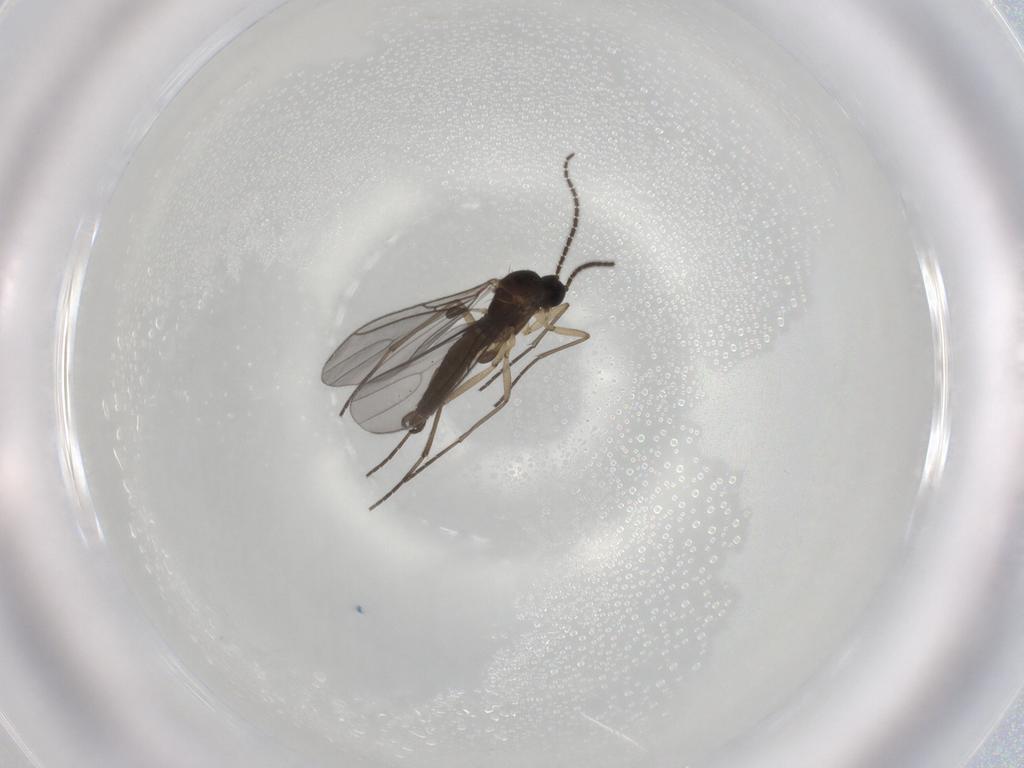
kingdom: Animalia
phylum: Arthropoda
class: Insecta
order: Diptera
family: Sciaridae
